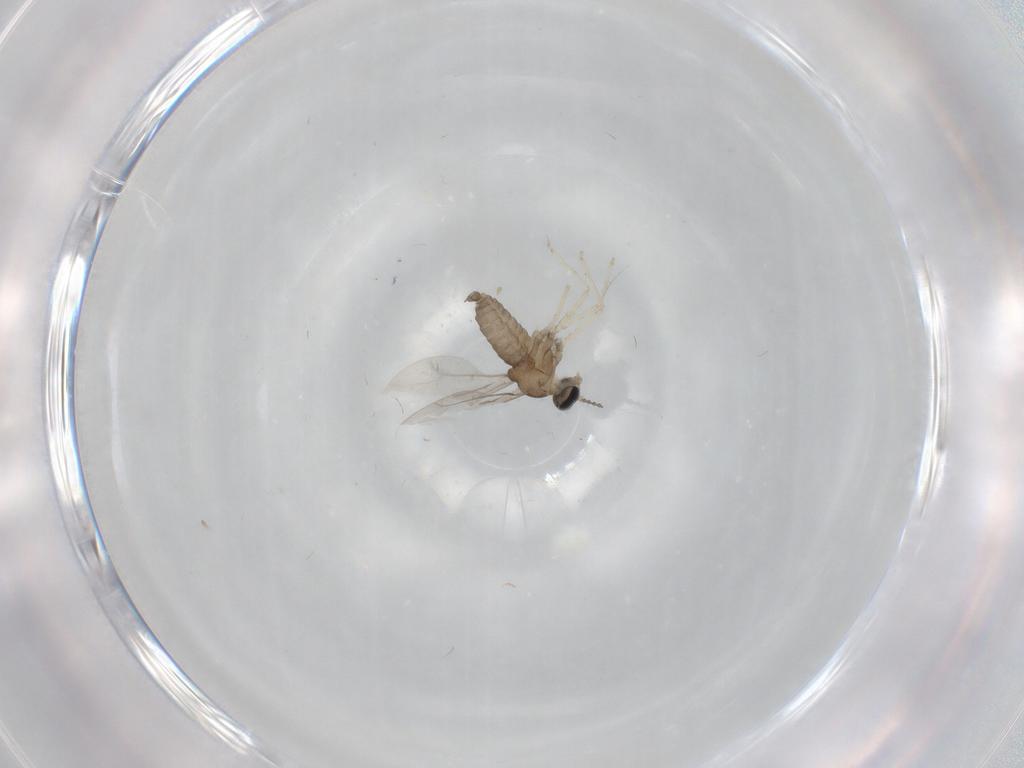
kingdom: Animalia
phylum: Arthropoda
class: Insecta
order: Diptera
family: Cecidomyiidae
